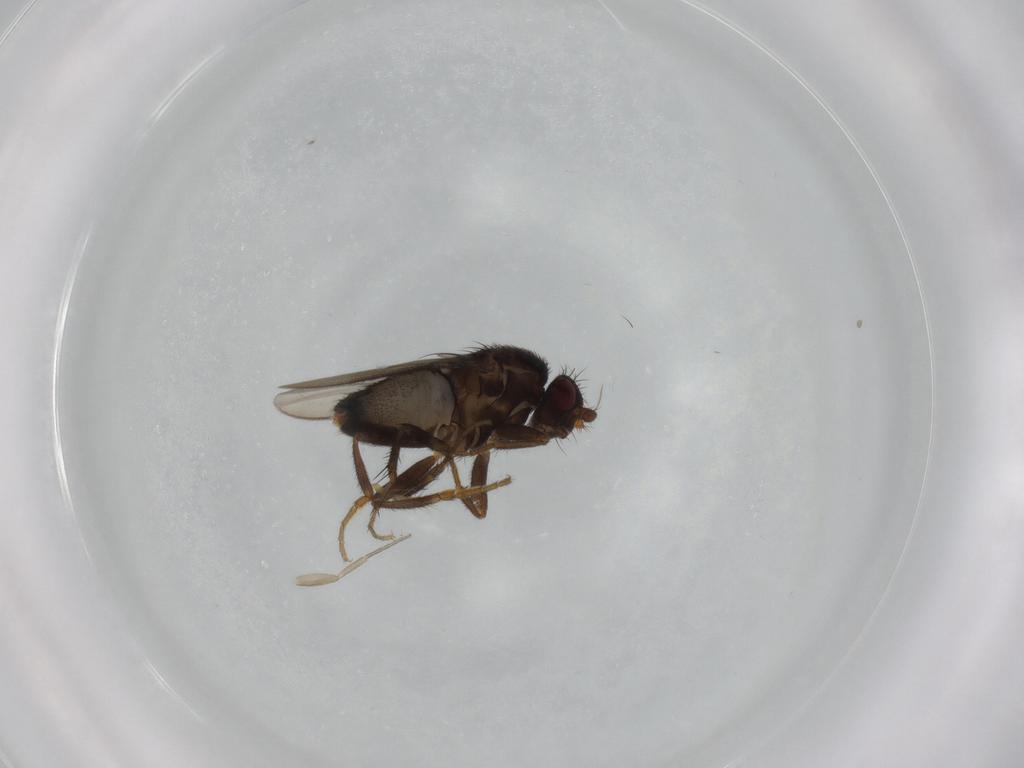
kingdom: Animalia
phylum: Arthropoda
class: Insecta
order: Diptera
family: Sphaeroceridae
